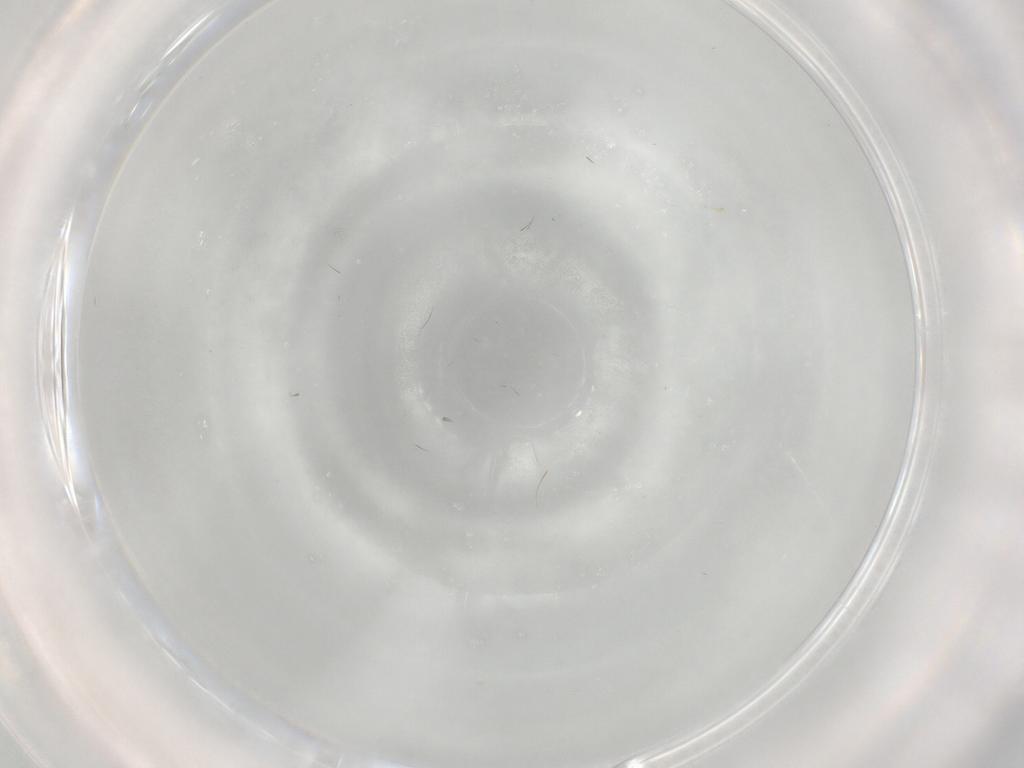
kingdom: Animalia
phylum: Arthropoda
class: Insecta
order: Diptera
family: Cecidomyiidae
